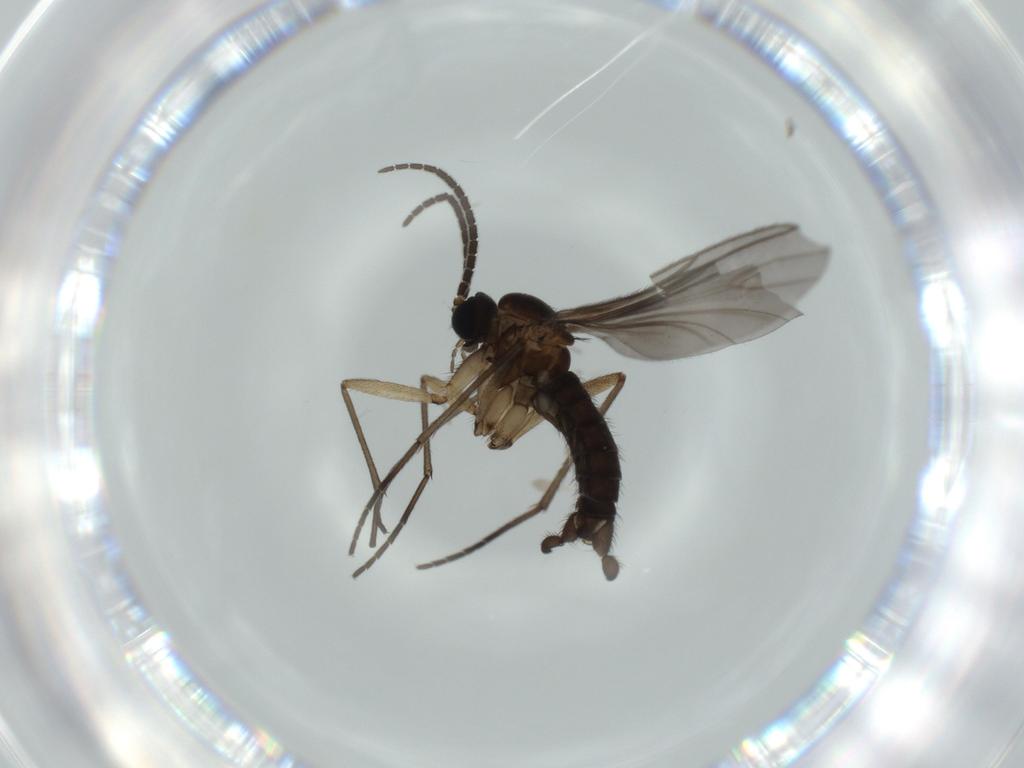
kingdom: Animalia
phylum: Arthropoda
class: Insecta
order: Diptera
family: Sciaridae
